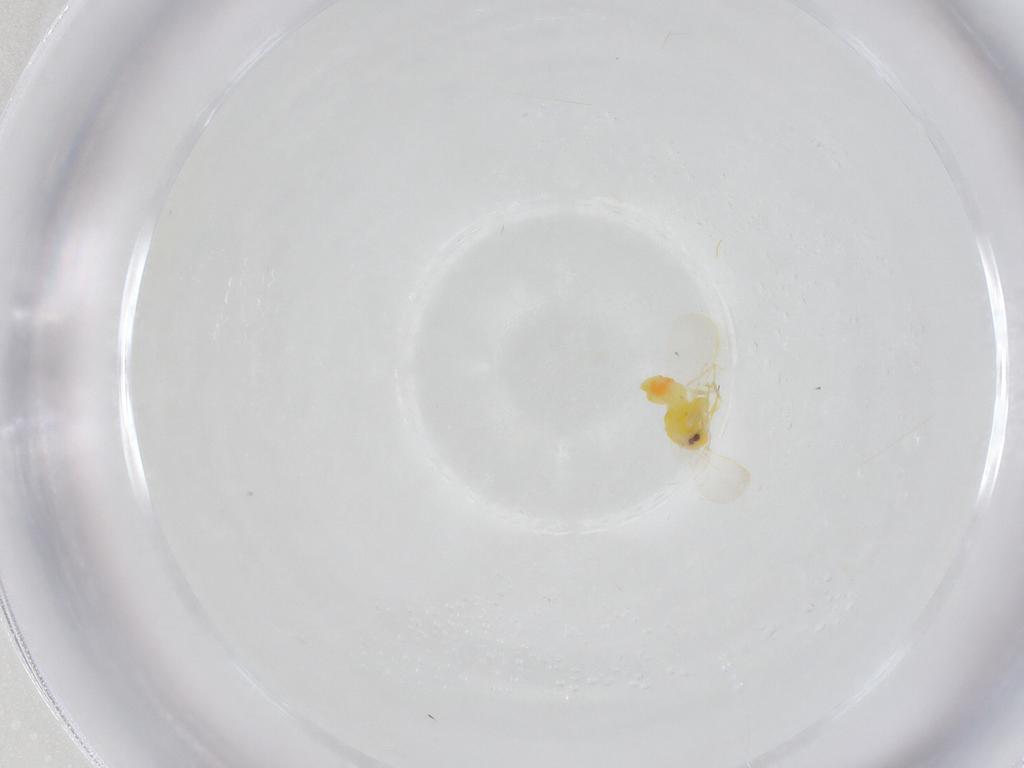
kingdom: Animalia
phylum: Arthropoda
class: Insecta
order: Hemiptera
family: Aleyrodidae
